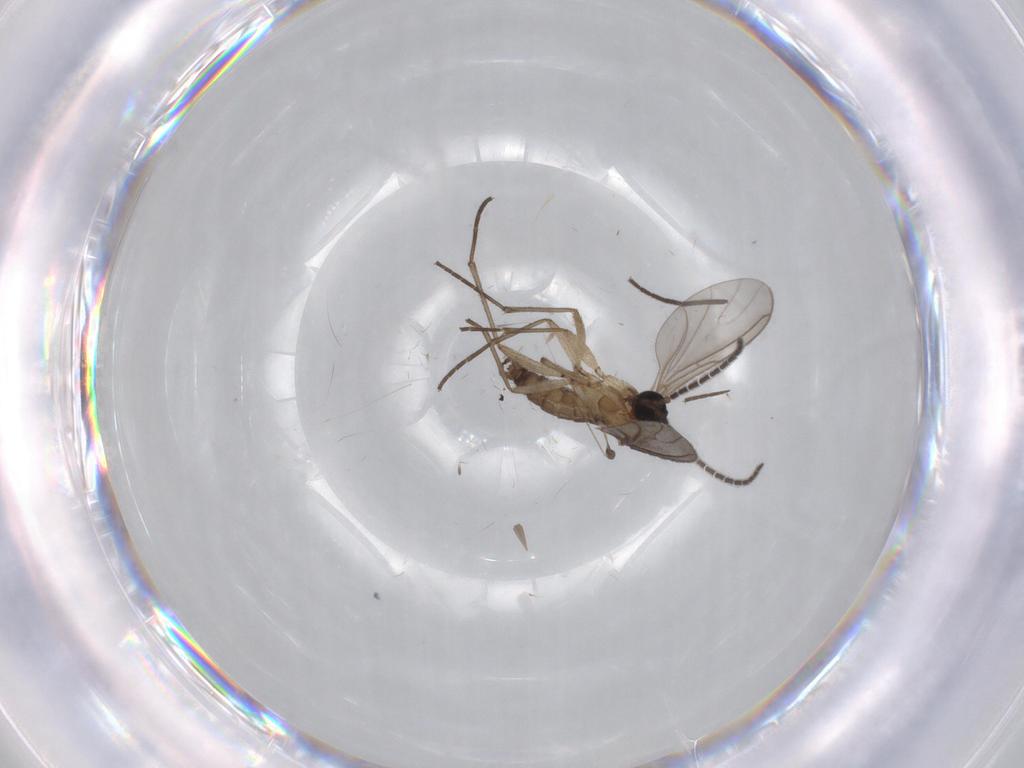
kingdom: Animalia
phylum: Arthropoda
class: Insecta
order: Diptera
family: Sciaridae
